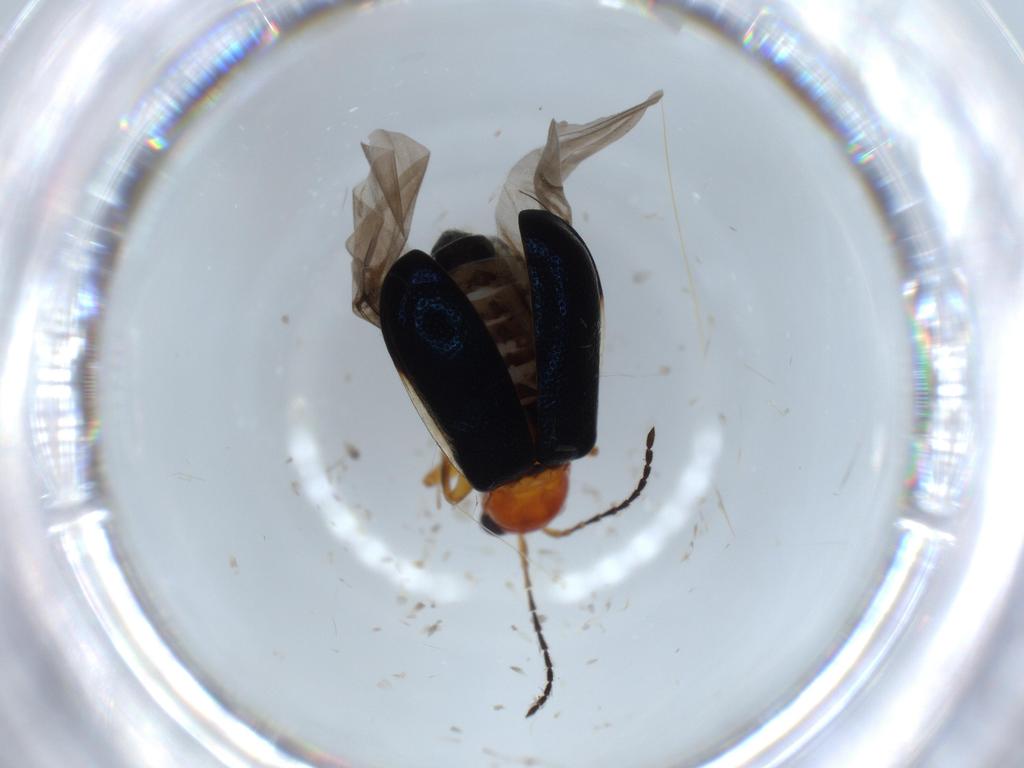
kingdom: Animalia
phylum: Arthropoda
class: Insecta
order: Coleoptera
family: Chrysomelidae
